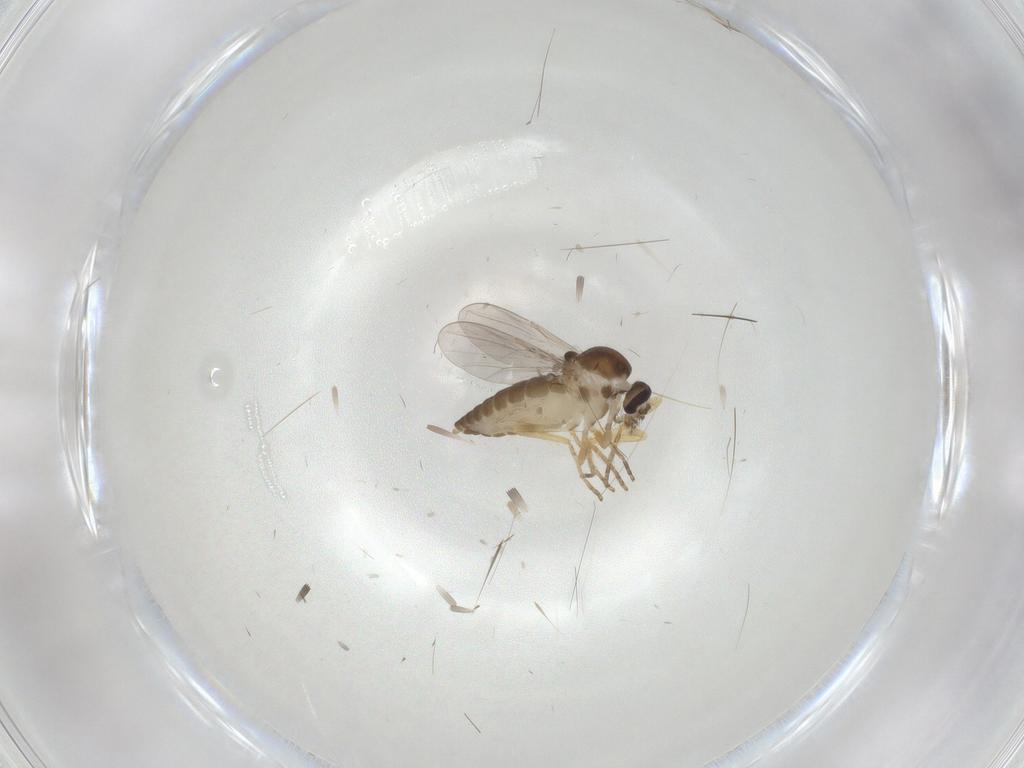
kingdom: Animalia
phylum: Arthropoda
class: Insecta
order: Diptera
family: Ceratopogonidae
